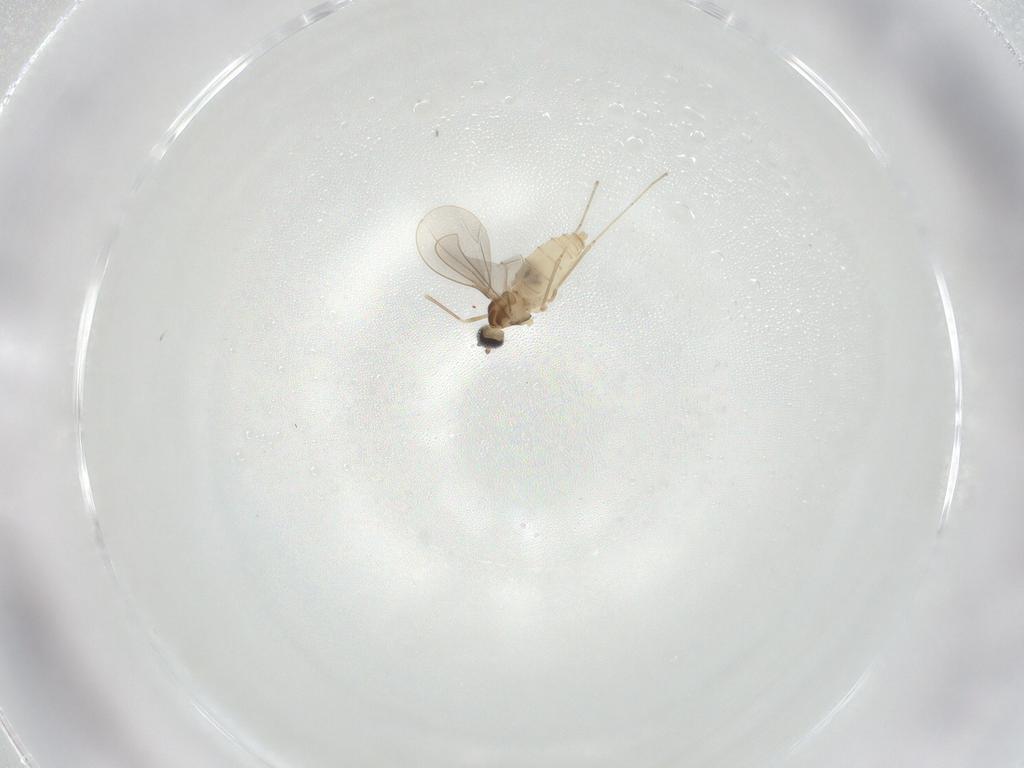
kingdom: Animalia
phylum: Arthropoda
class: Insecta
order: Diptera
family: Cecidomyiidae
